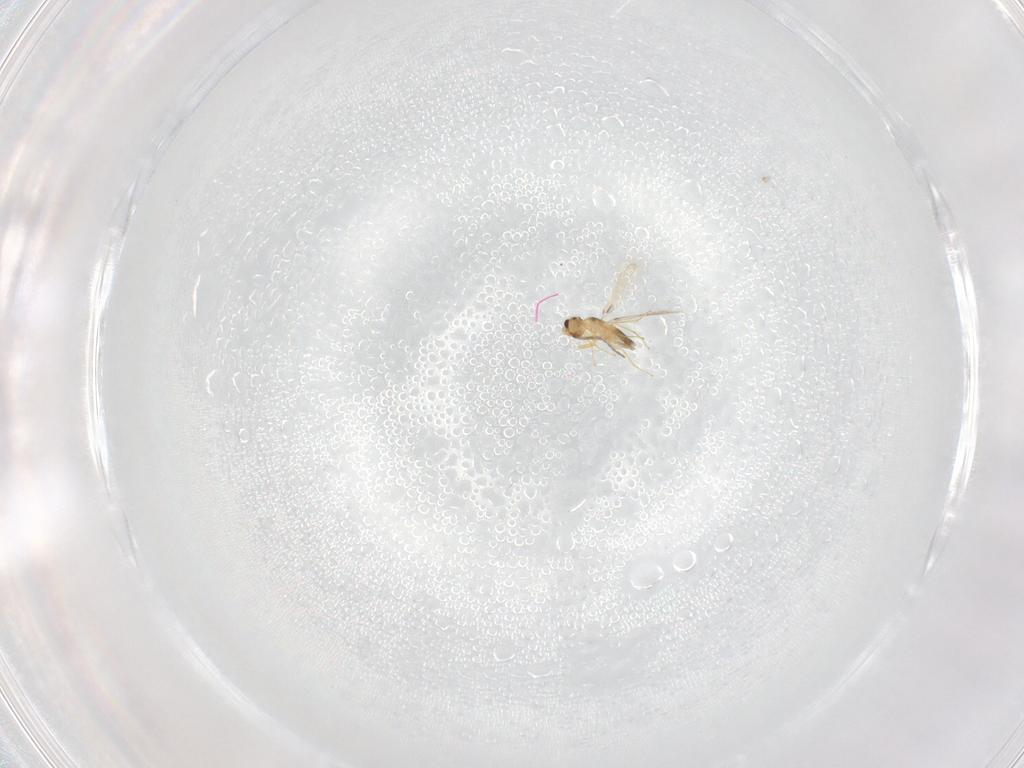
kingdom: Animalia
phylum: Arthropoda
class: Insecta
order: Hymenoptera
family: Mymaridae
